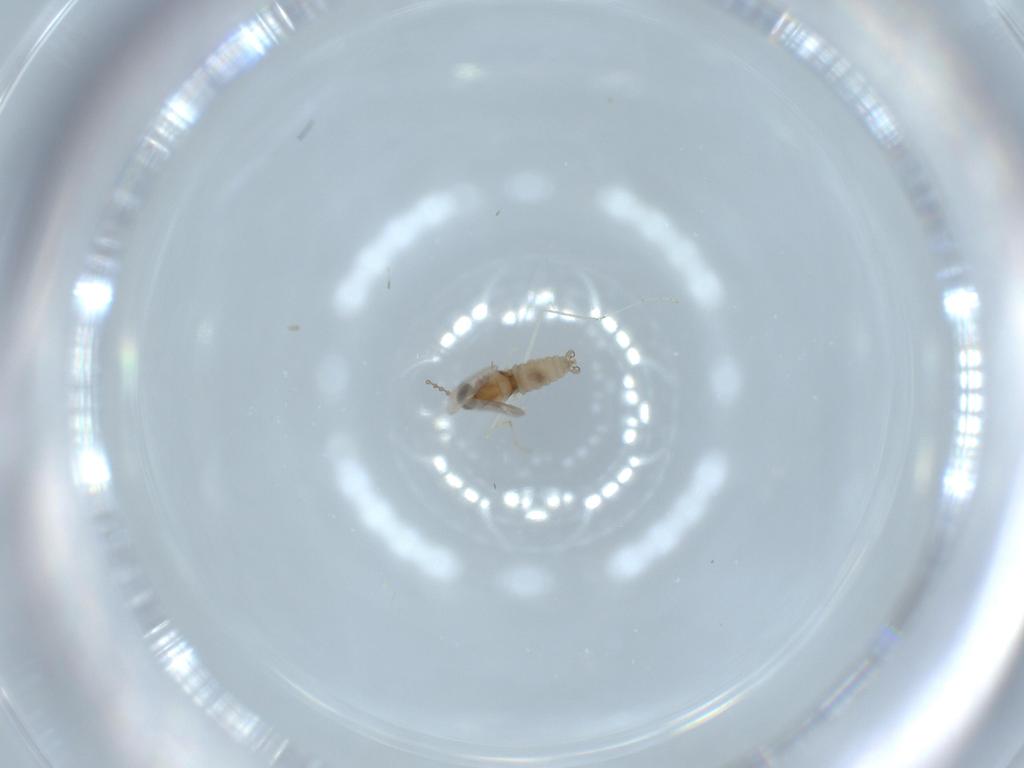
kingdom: Animalia
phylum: Arthropoda
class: Insecta
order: Diptera
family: Cecidomyiidae
